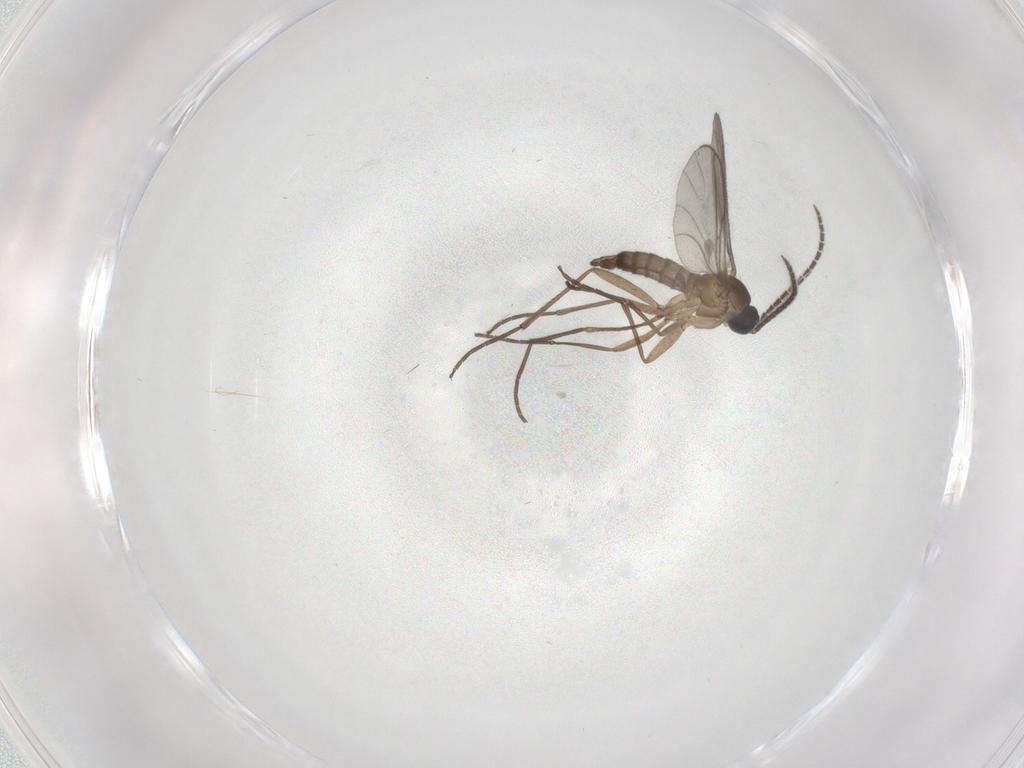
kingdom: Animalia
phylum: Arthropoda
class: Insecta
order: Diptera
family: Sciaridae
